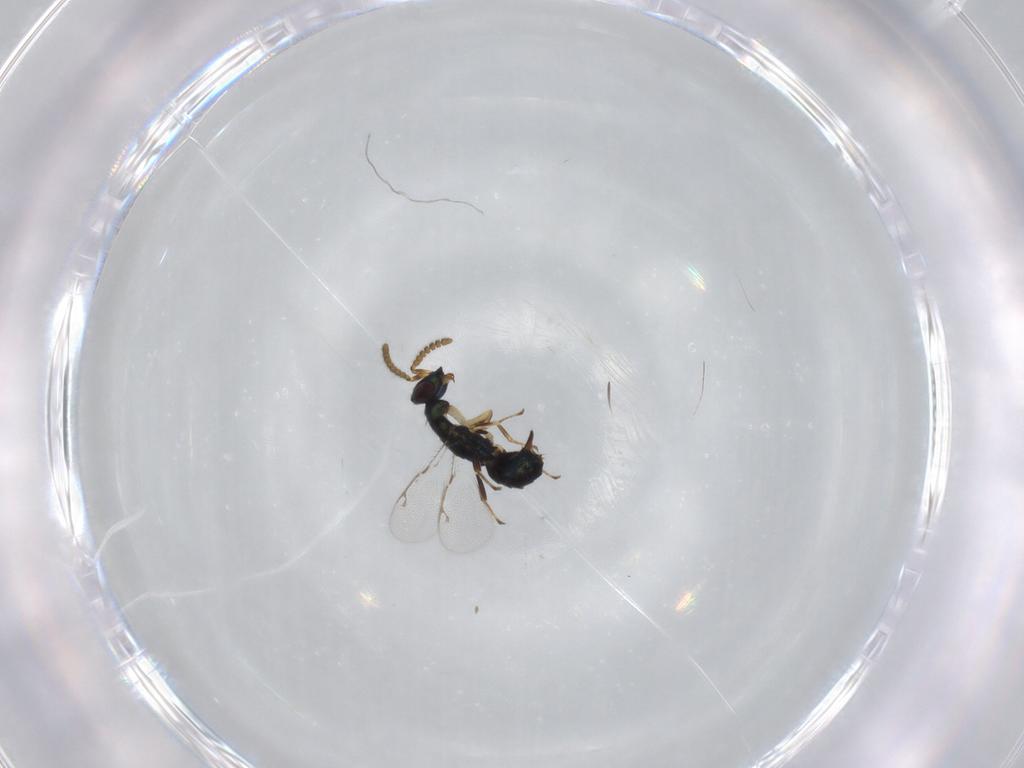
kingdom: Animalia
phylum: Arthropoda
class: Insecta
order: Hymenoptera
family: Pirenidae
